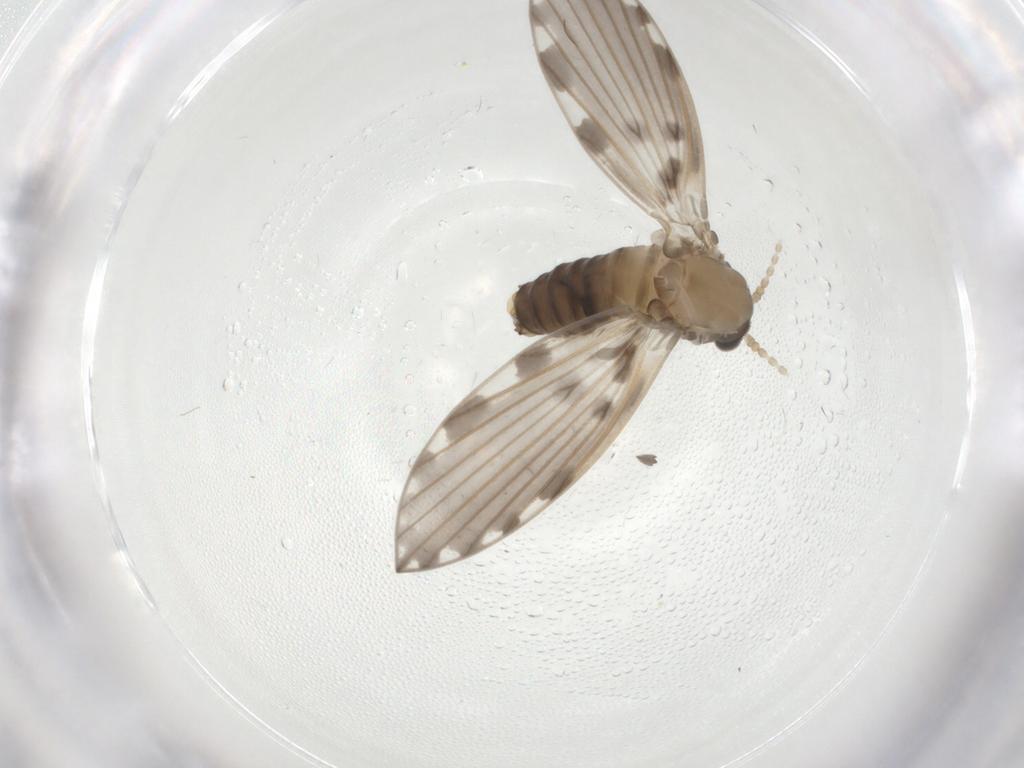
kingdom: Animalia
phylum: Arthropoda
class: Insecta
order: Diptera
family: Psychodidae
